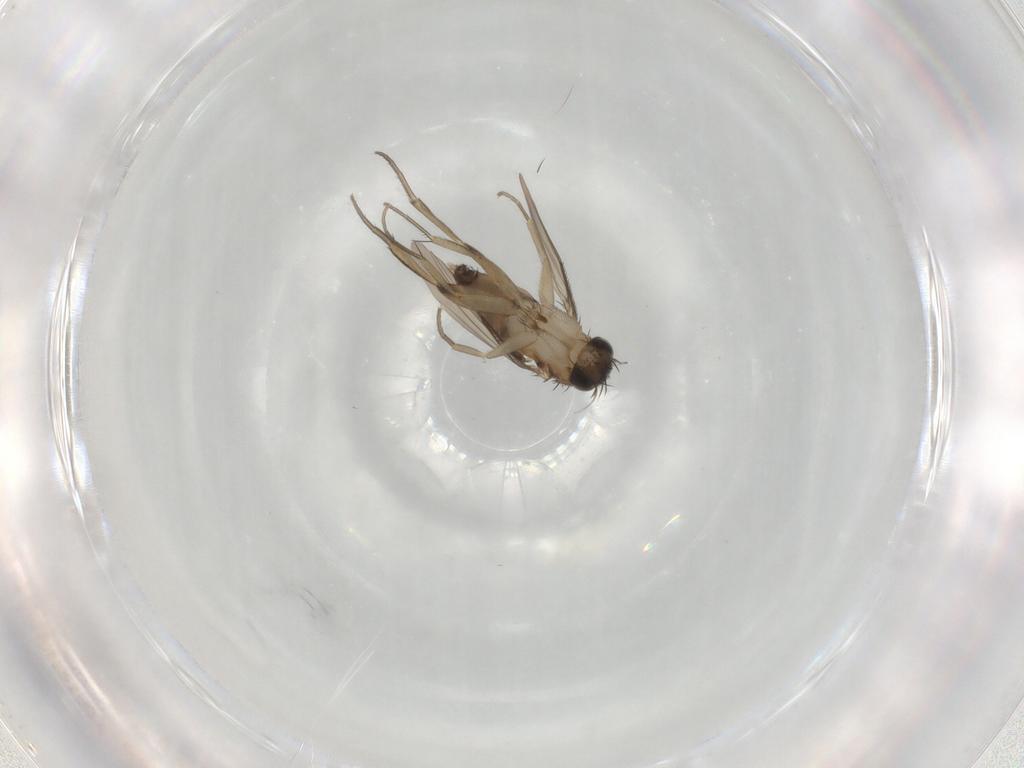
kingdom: Animalia
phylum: Arthropoda
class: Insecta
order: Diptera
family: Phoridae
